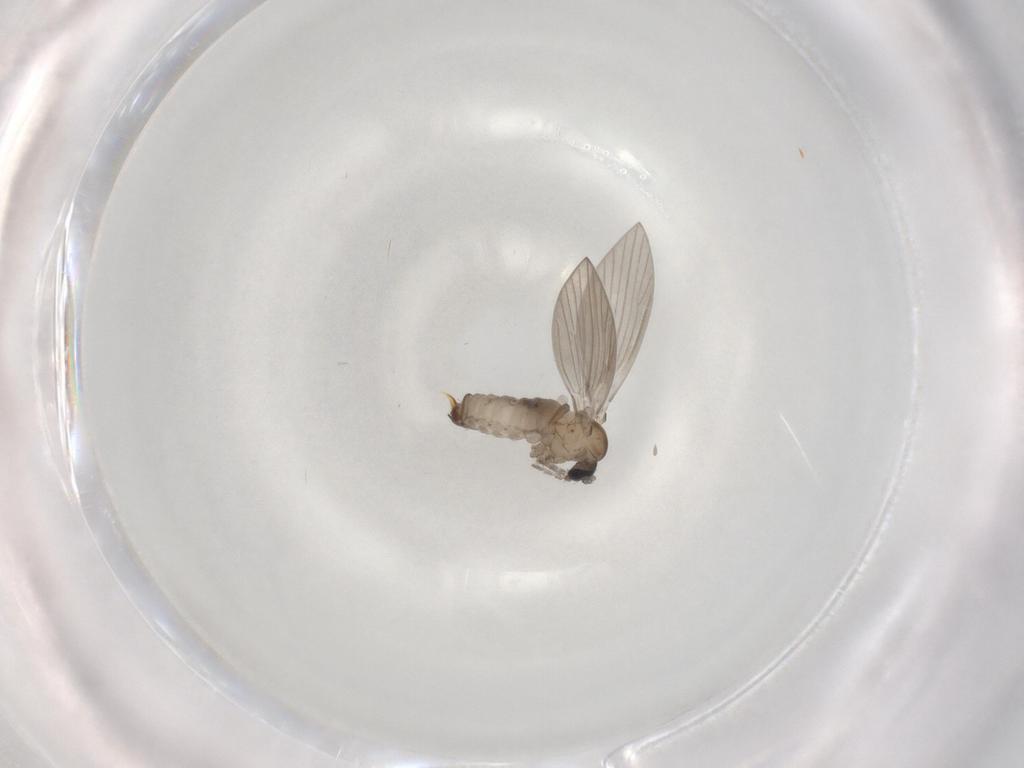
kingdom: Animalia
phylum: Arthropoda
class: Insecta
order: Diptera
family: Psychodidae
